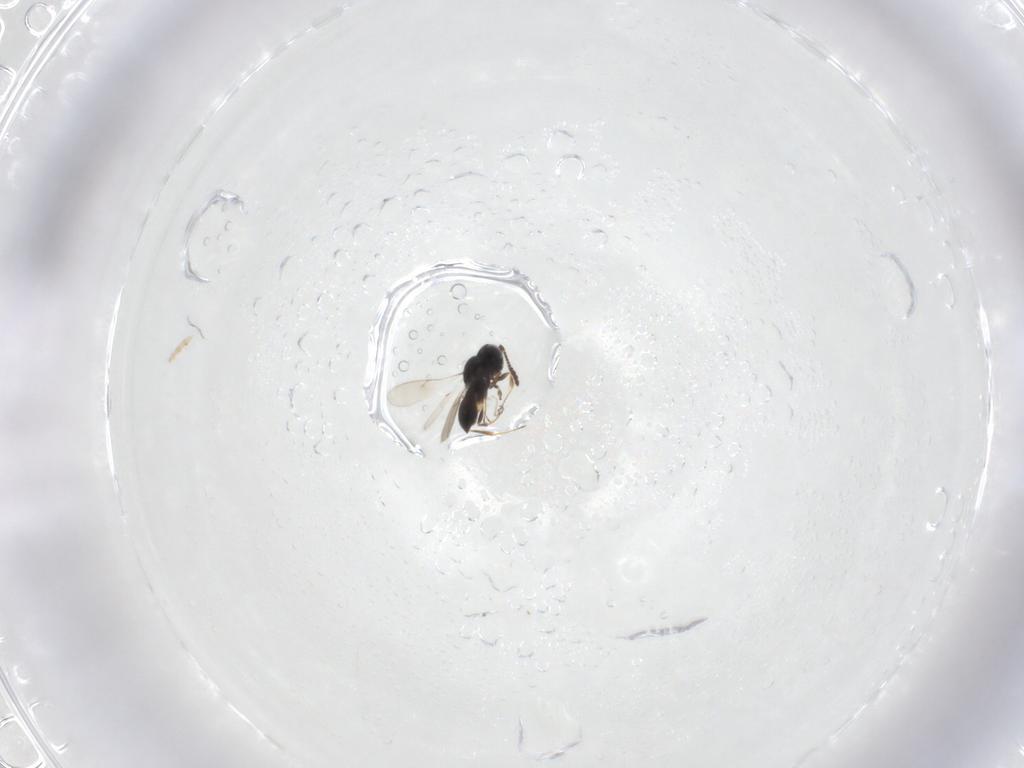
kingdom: Animalia
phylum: Arthropoda
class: Insecta
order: Hymenoptera
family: Scelionidae
